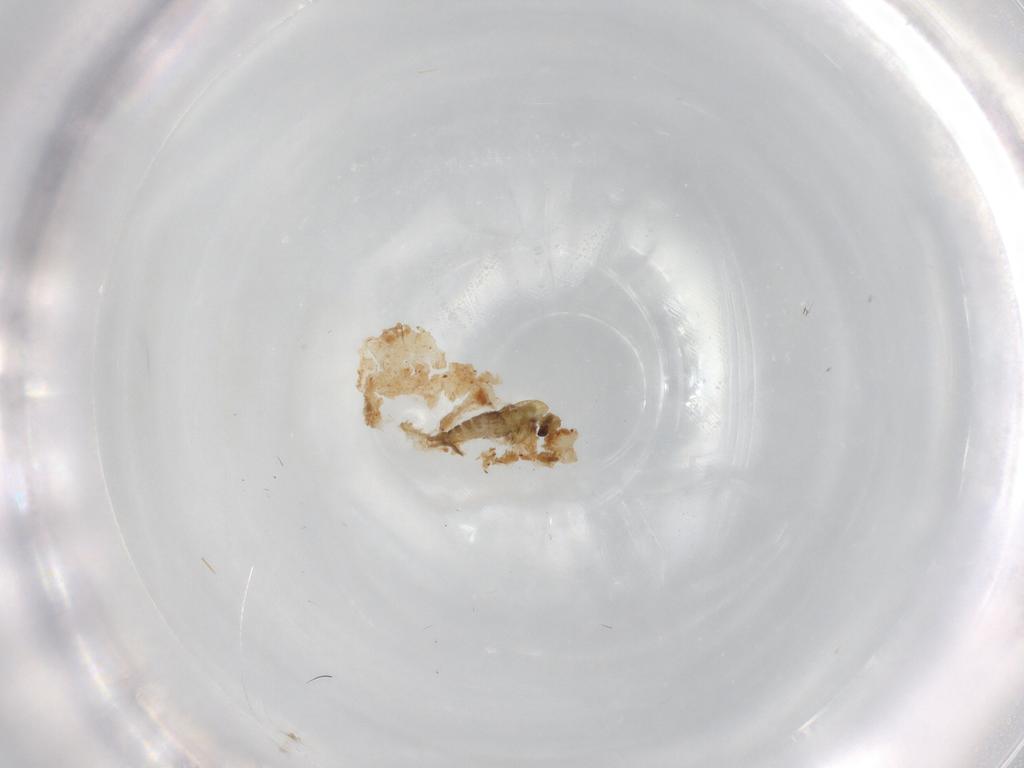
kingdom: Animalia
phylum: Arthropoda
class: Insecta
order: Diptera
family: Chironomidae
